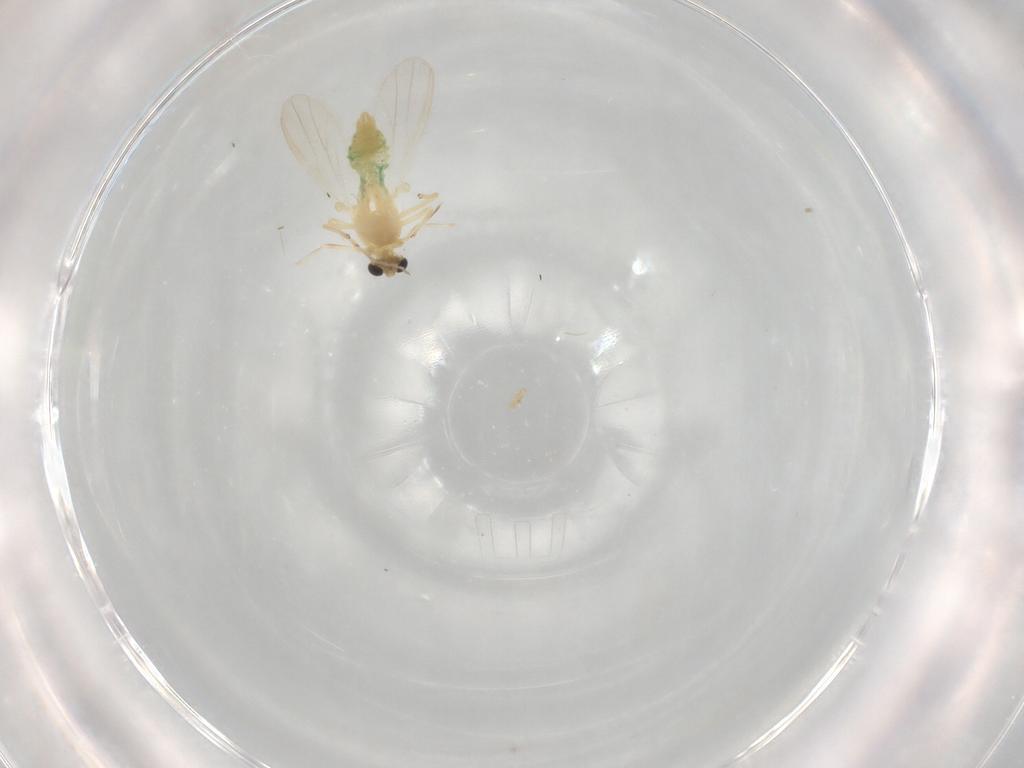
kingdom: Animalia
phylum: Arthropoda
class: Insecta
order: Diptera
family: Chironomidae
